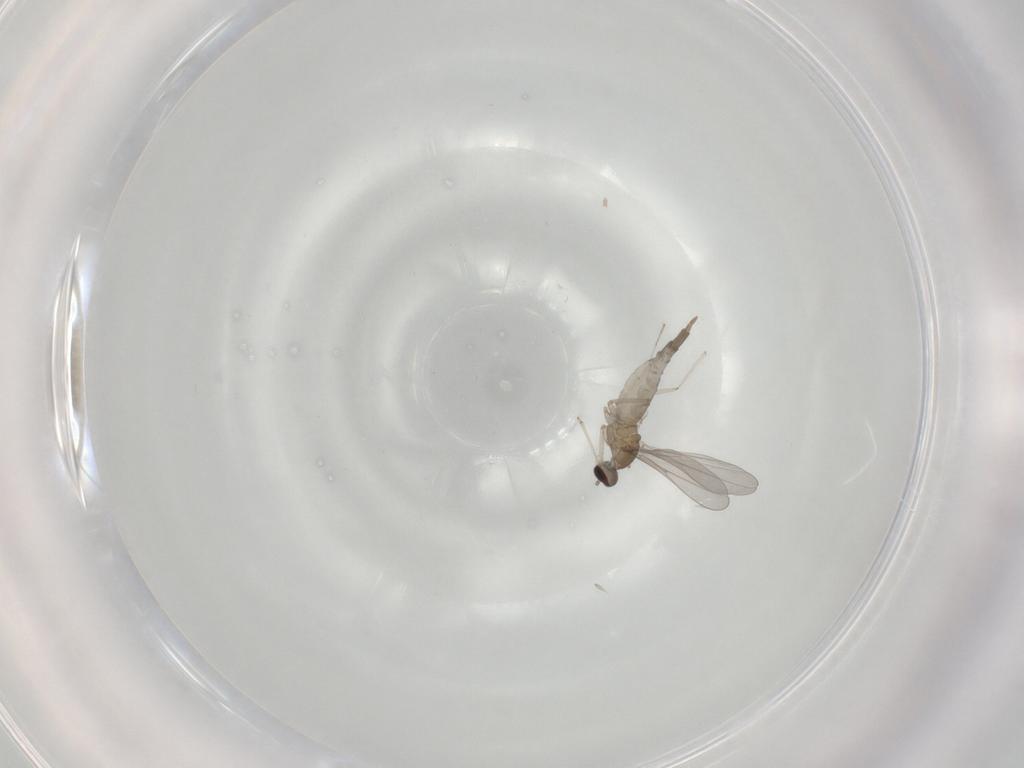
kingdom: Animalia
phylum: Arthropoda
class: Insecta
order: Diptera
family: Cecidomyiidae
